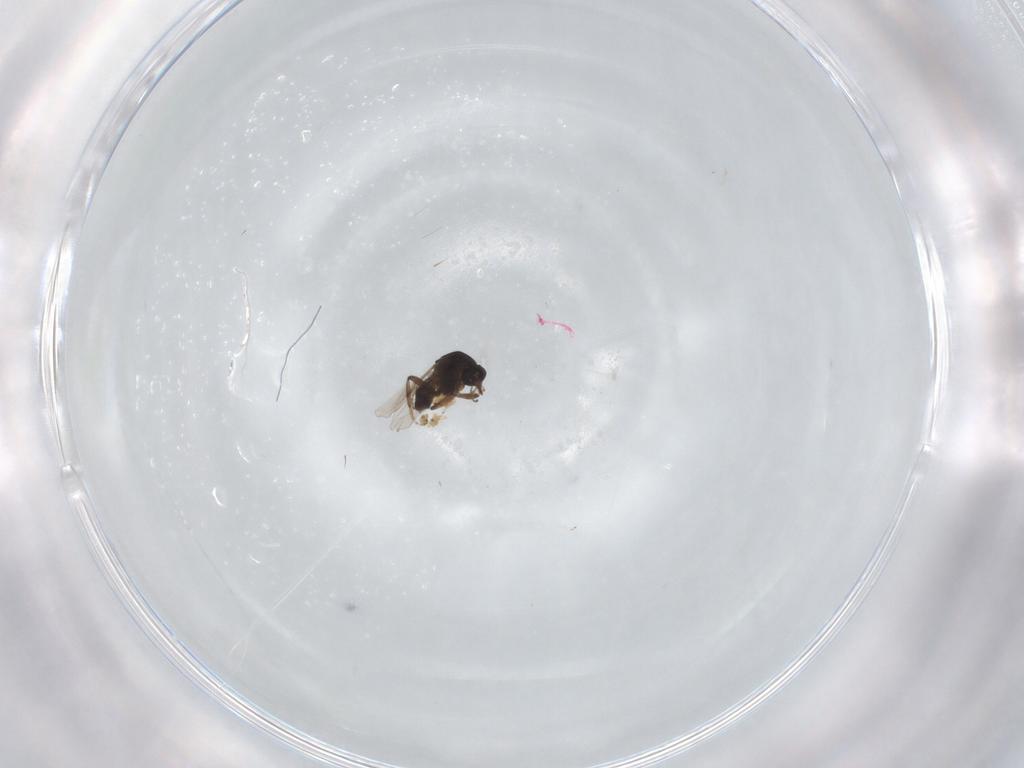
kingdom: Animalia
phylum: Arthropoda
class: Insecta
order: Diptera
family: Ceratopogonidae
